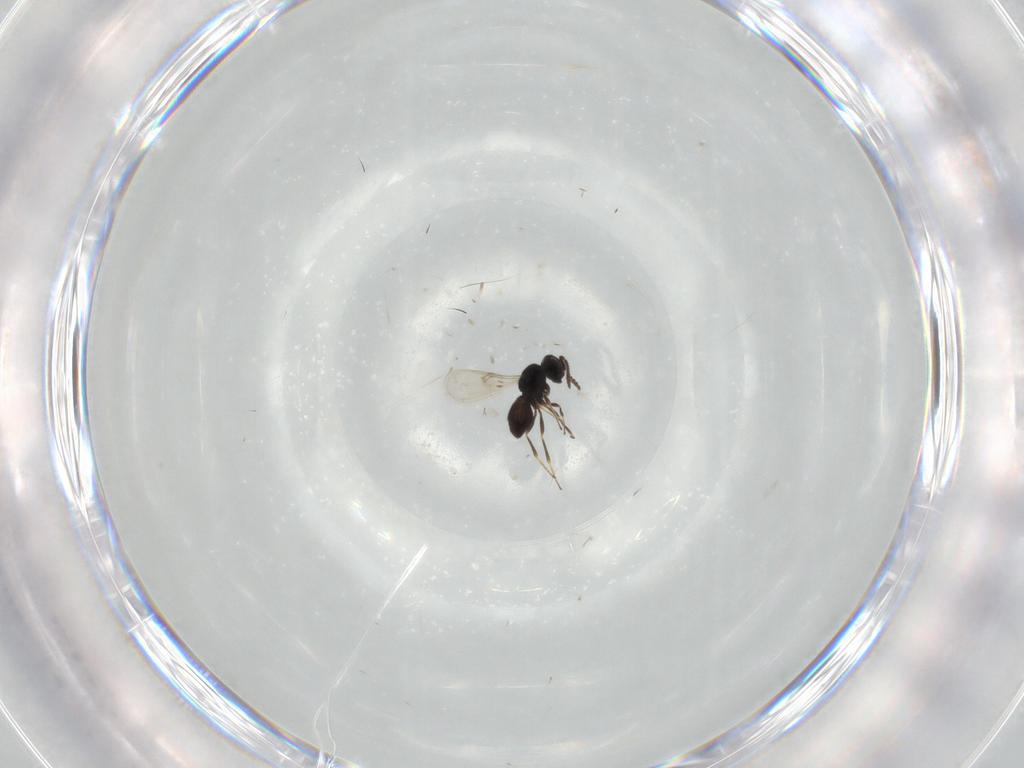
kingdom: Animalia
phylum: Arthropoda
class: Insecta
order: Hymenoptera
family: Scelionidae
